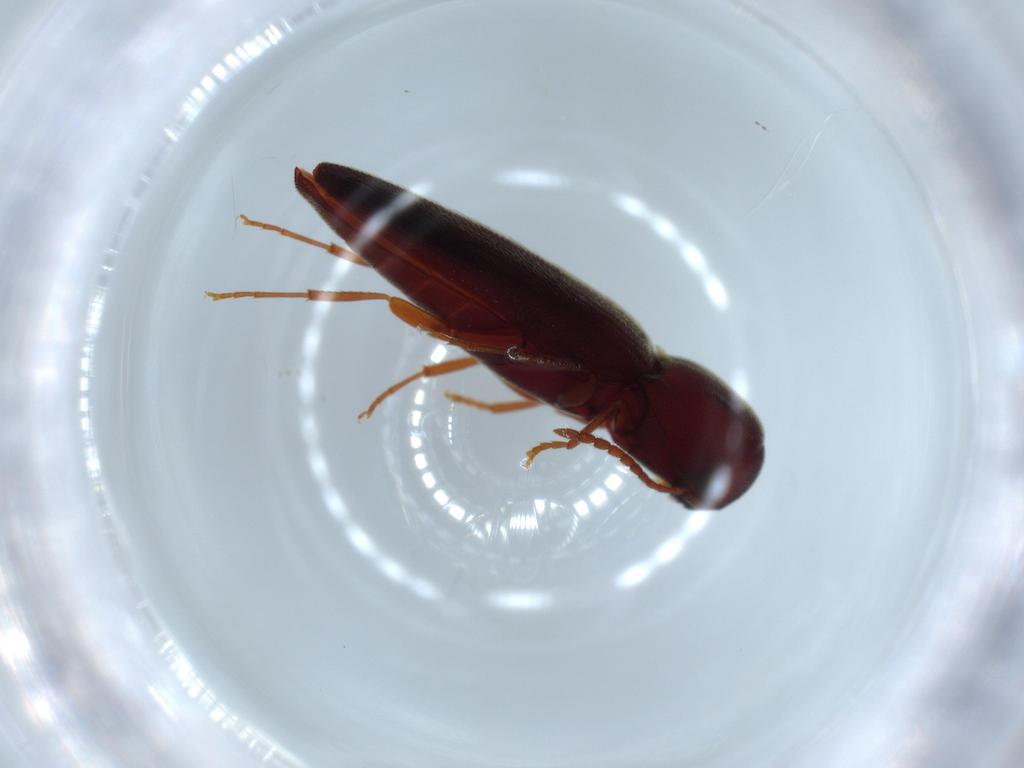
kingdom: Animalia
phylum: Arthropoda
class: Insecta
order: Coleoptera
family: Eucnemidae
